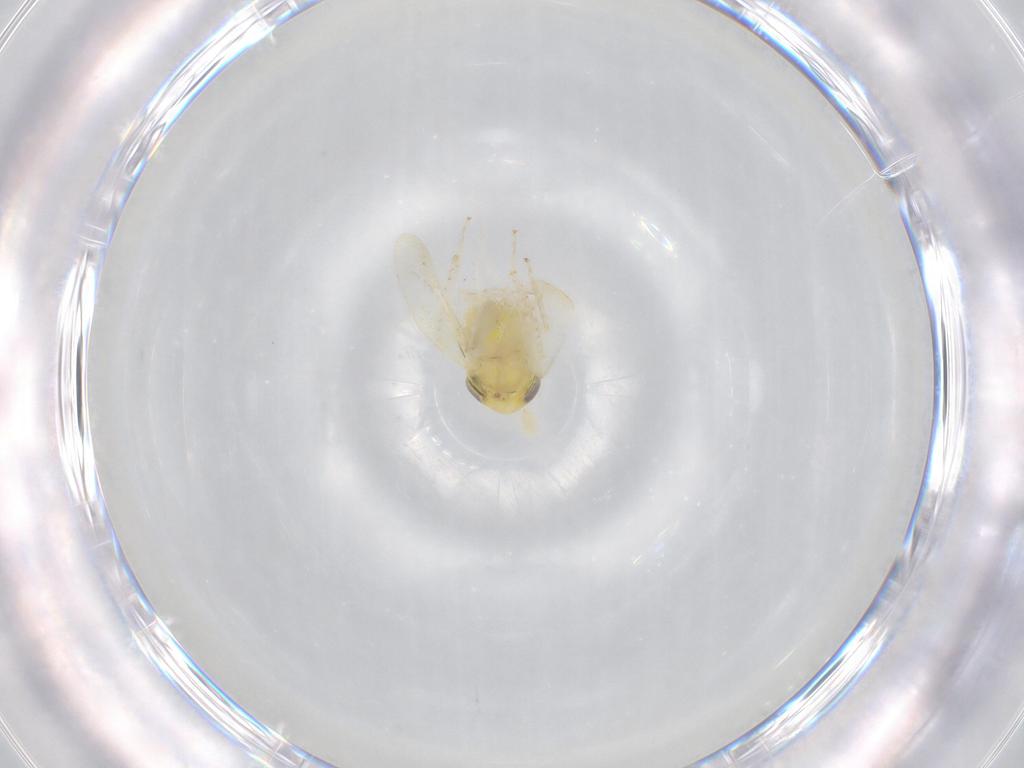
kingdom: Animalia
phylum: Arthropoda
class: Insecta
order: Hemiptera
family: Cicadellidae
